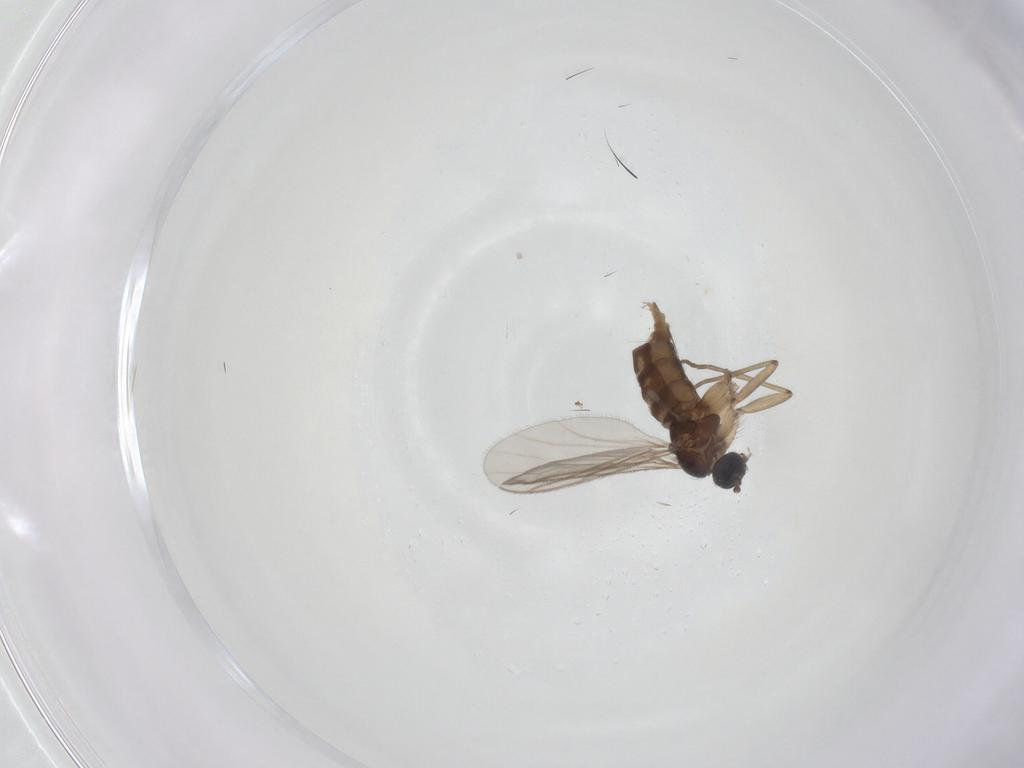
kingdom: Animalia
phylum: Arthropoda
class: Insecta
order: Diptera
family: Sciaridae
